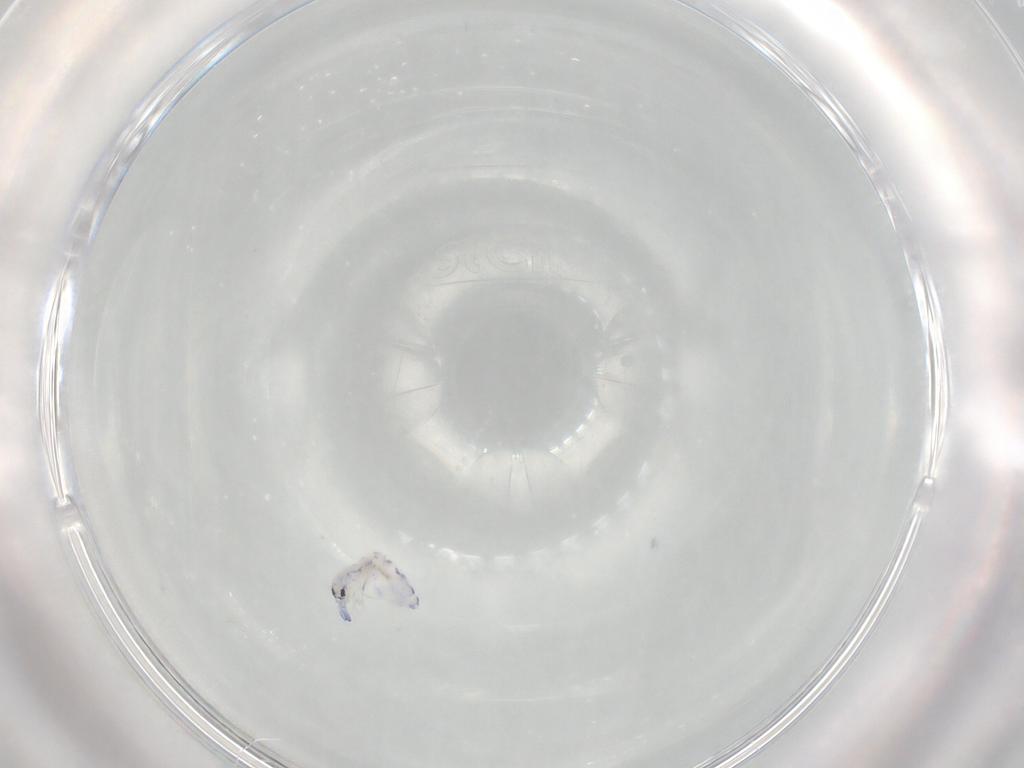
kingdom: Animalia
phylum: Arthropoda
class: Collembola
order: Entomobryomorpha
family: Entomobryidae
